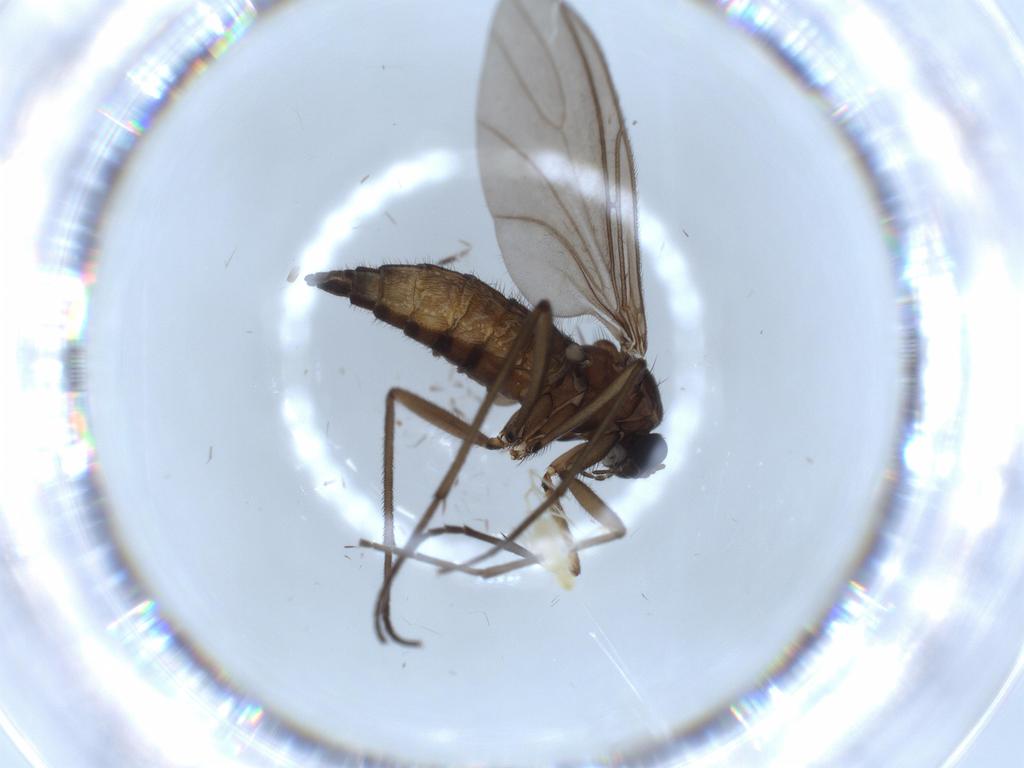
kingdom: Animalia
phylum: Arthropoda
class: Insecta
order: Diptera
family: Sciaridae
